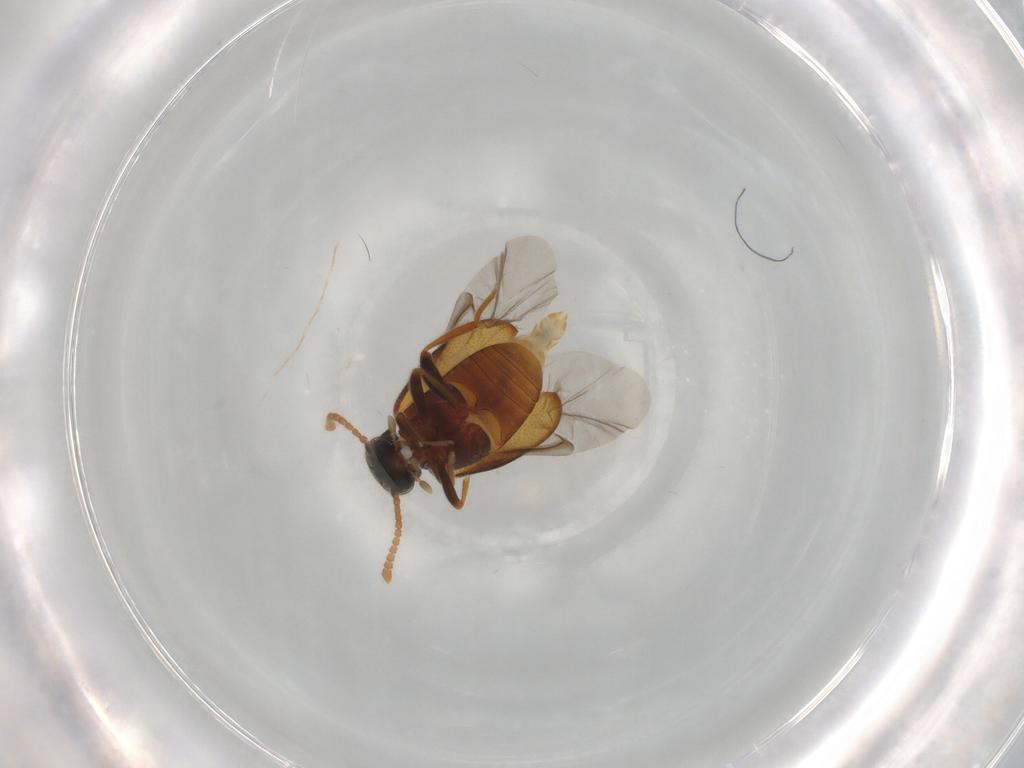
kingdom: Animalia
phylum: Arthropoda
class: Insecta
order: Coleoptera
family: Aderidae
